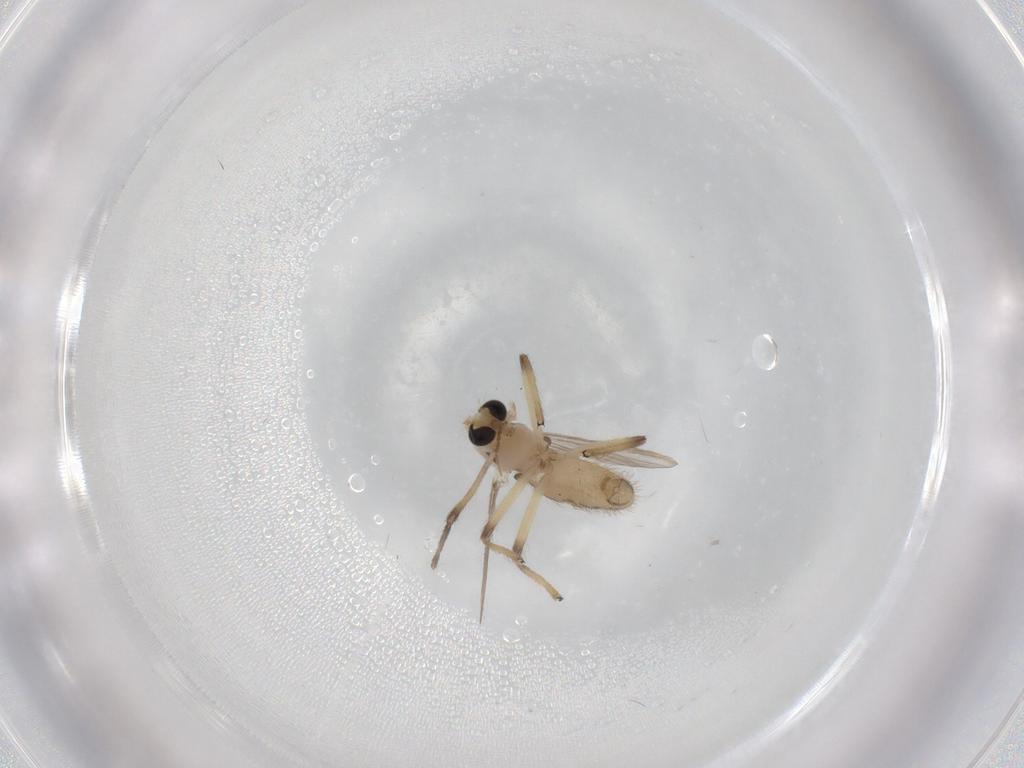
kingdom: Animalia
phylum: Arthropoda
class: Insecta
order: Diptera
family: Chironomidae
